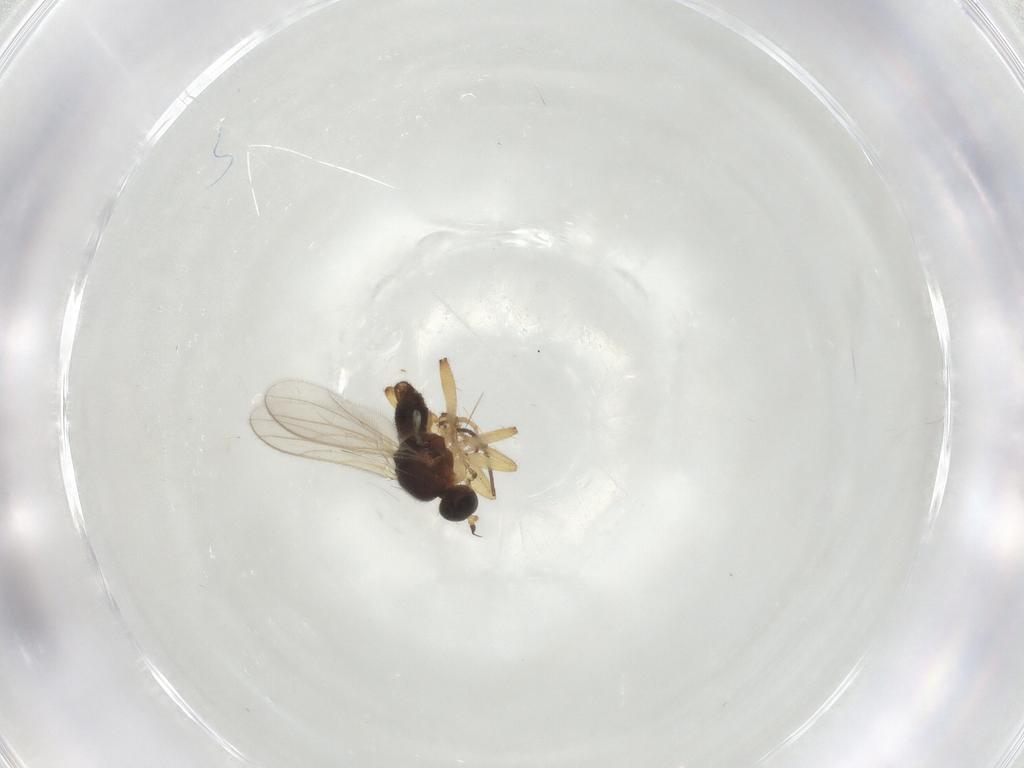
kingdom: Animalia
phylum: Arthropoda
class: Insecta
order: Diptera
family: Hybotidae
